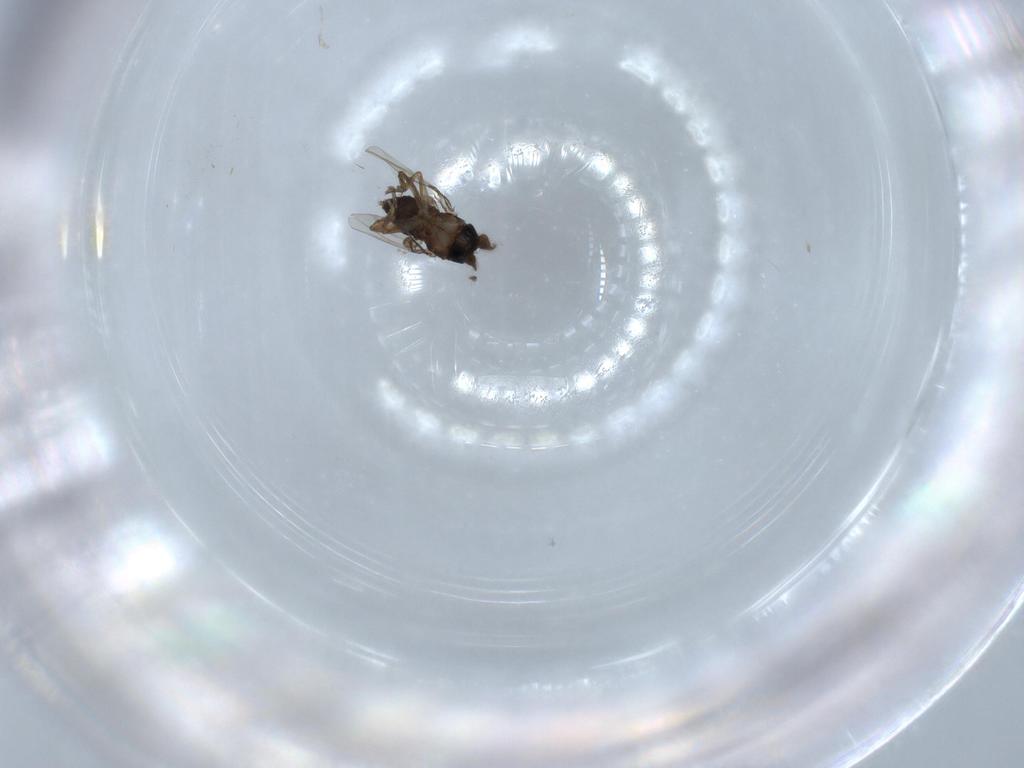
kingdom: Animalia
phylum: Arthropoda
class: Insecta
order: Diptera
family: Phoridae
